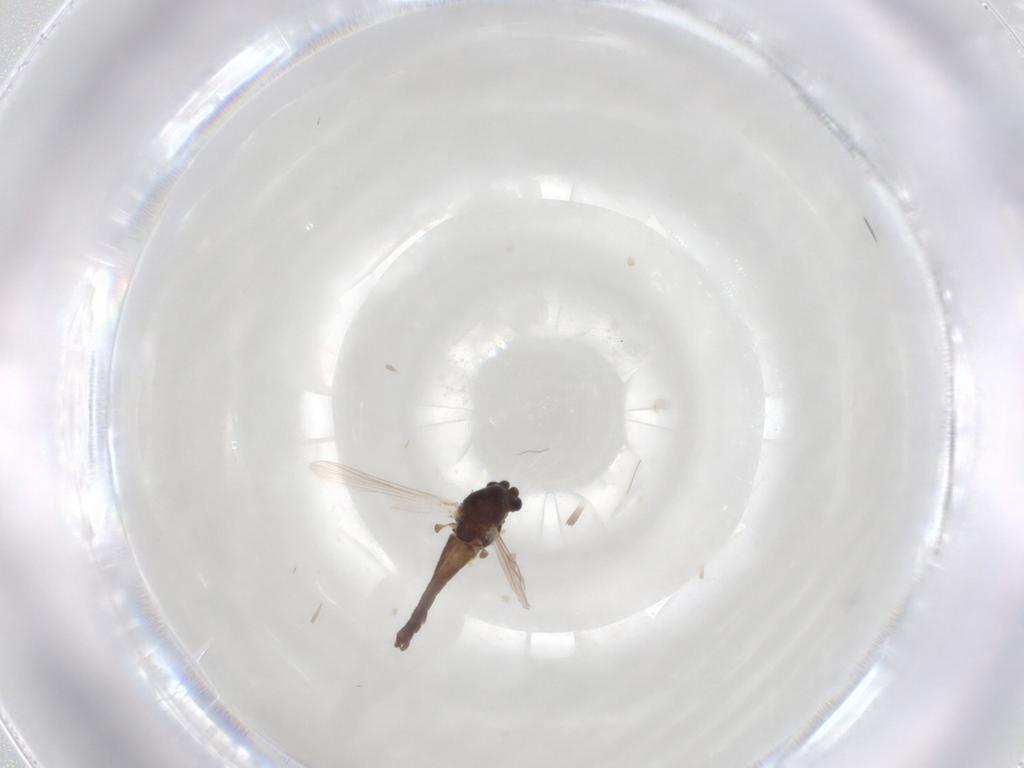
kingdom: Animalia
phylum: Arthropoda
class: Insecta
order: Diptera
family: Chironomidae
